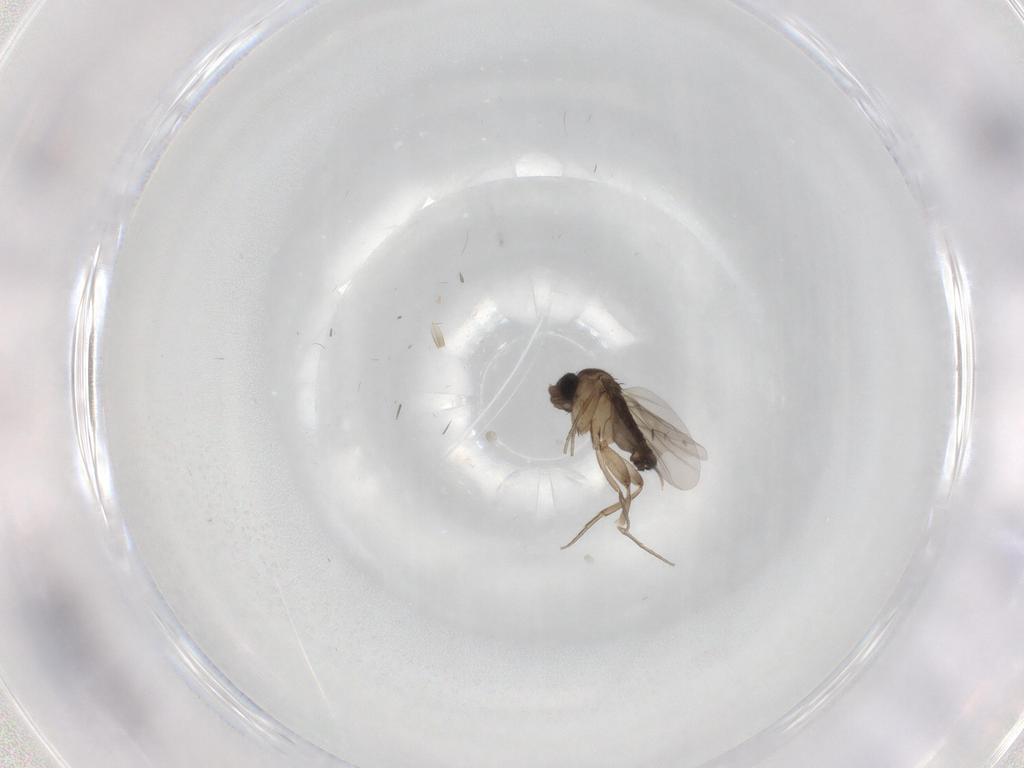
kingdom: Animalia
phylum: Arthropoda
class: Insecta
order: Diptera
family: Phoridae
